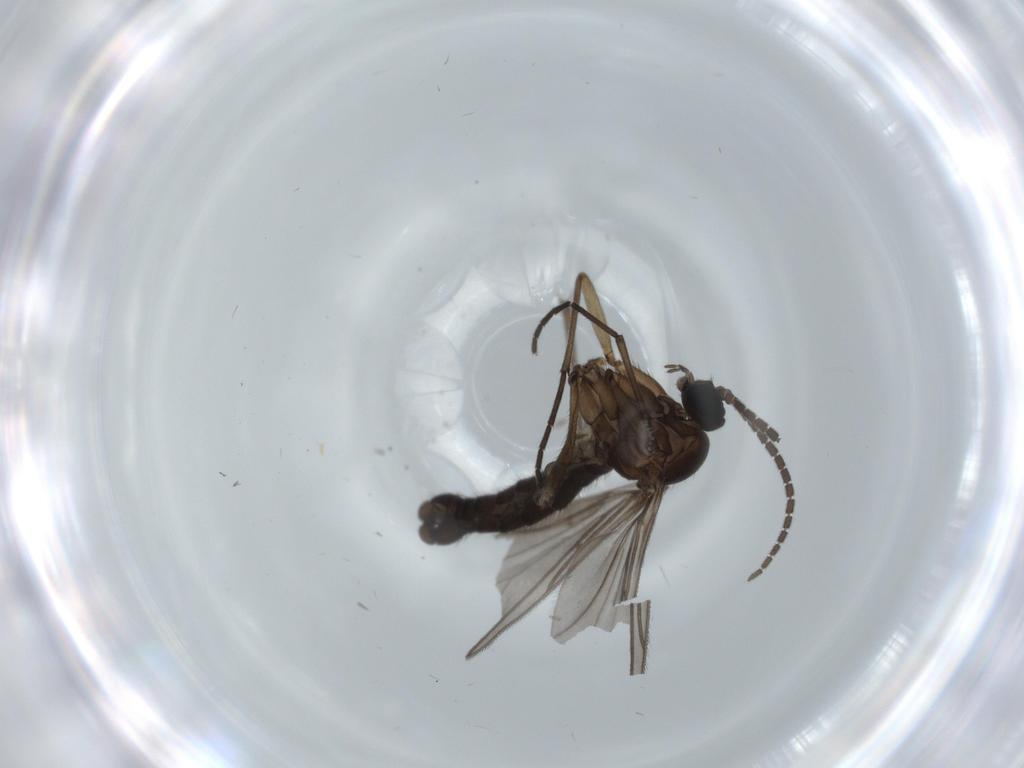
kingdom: Animalia
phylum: Arthropoda
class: Insecta
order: Diptera
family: Sciaridae
